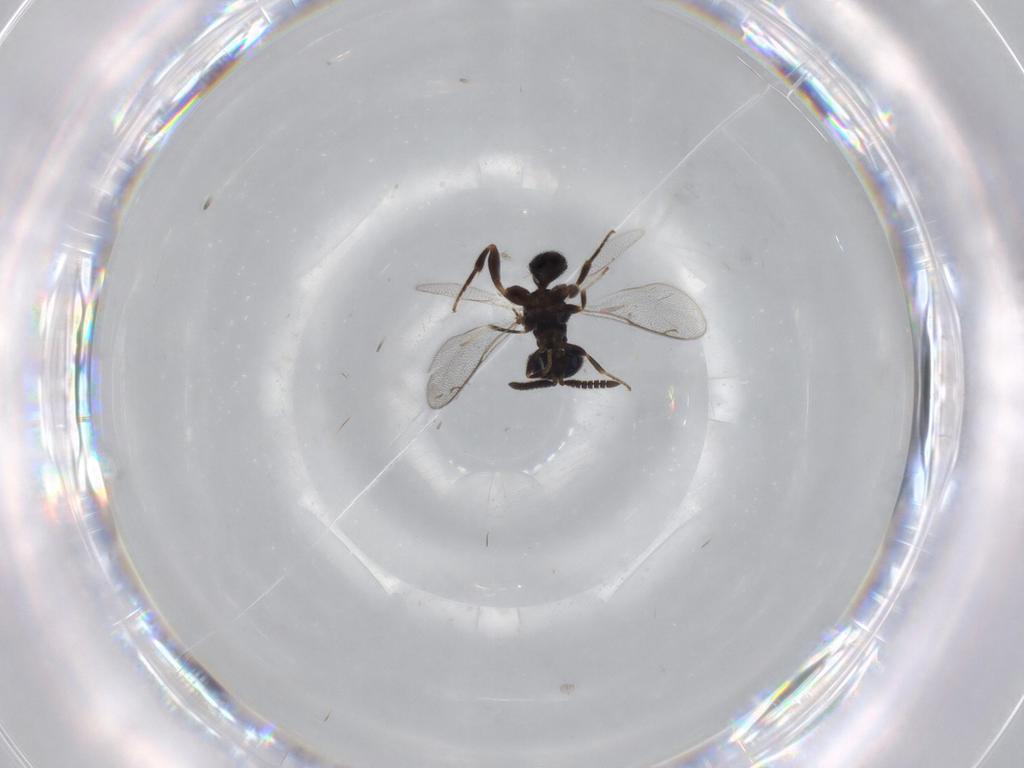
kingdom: Animalia
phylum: Arthropoda
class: Insecta
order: Hymenoptera
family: Cleonyminae
